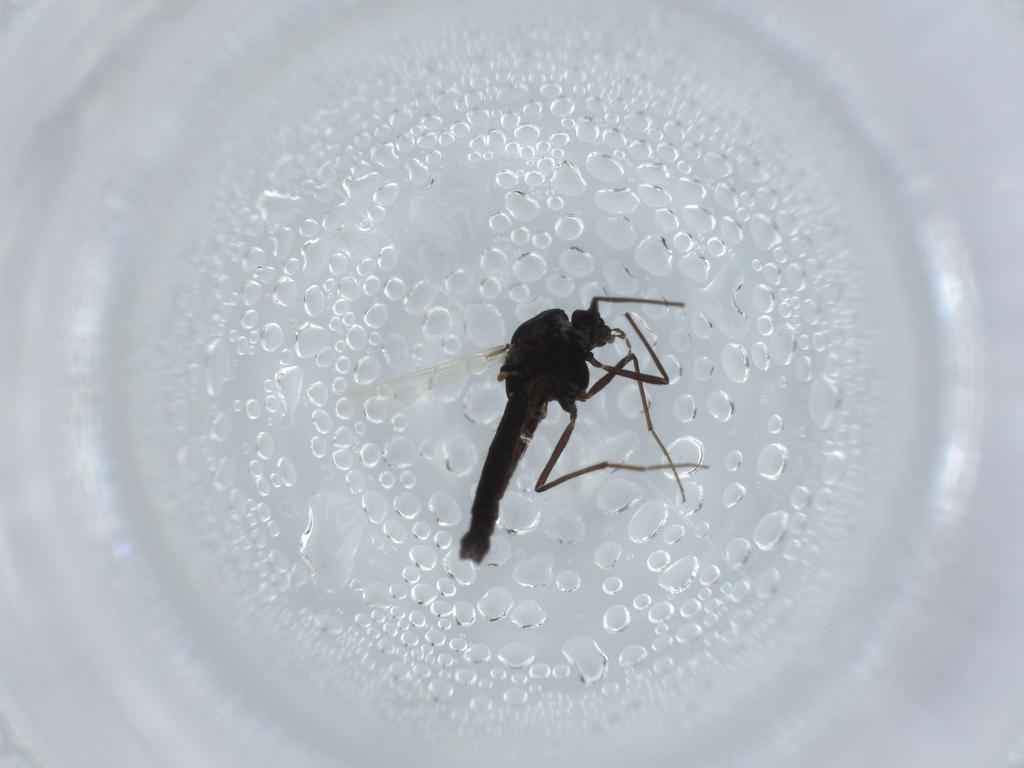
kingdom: Animalia
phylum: Arthropoda
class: Insecta
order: Diptera
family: Chironomidae
